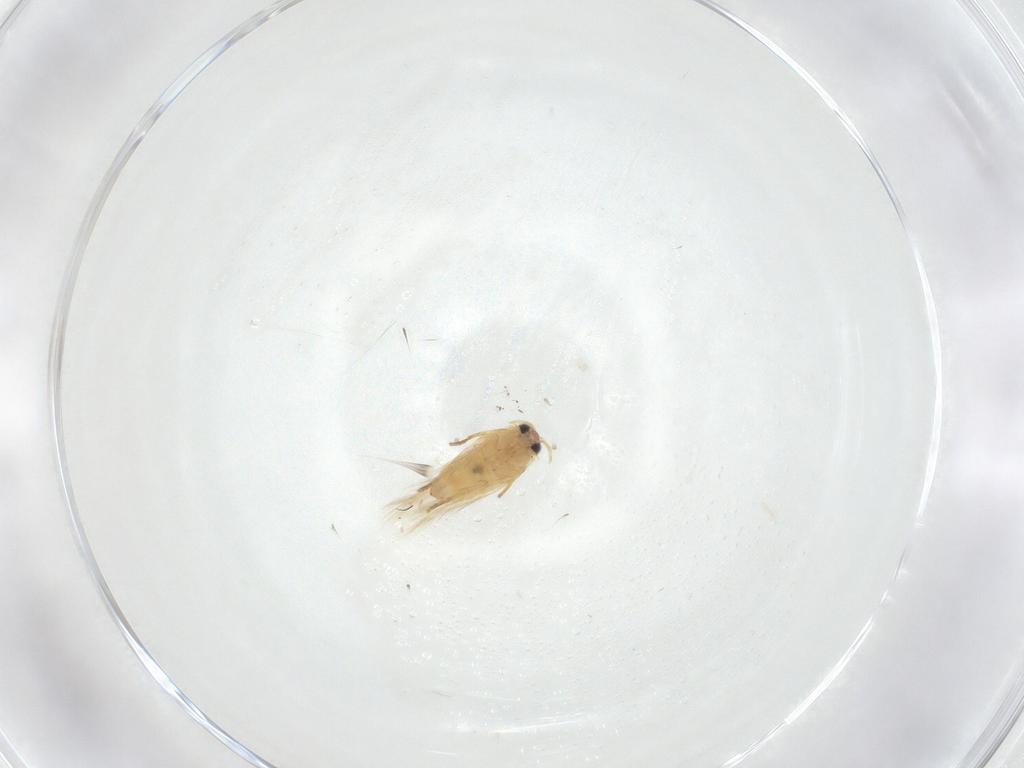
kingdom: Animalia
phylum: Arthropoda
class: Insecta
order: Lepidoptera
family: Crambidae
